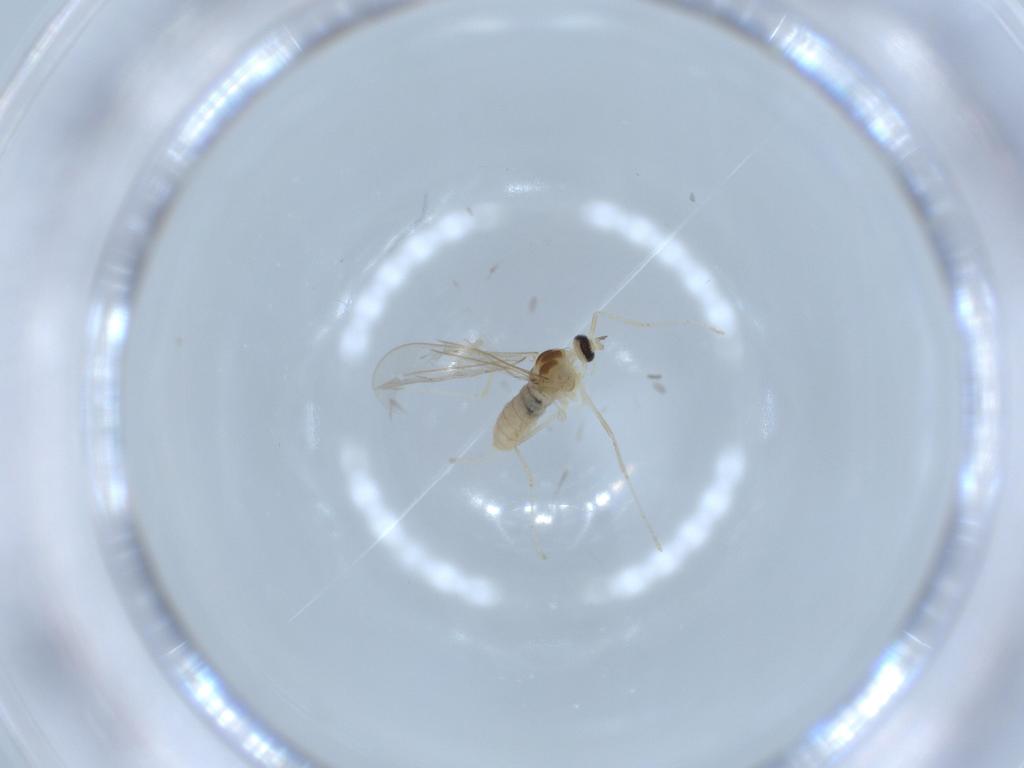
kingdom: Animalia
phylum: Arthropoda
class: Insecta
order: Diptera
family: Cecidomyiidae
